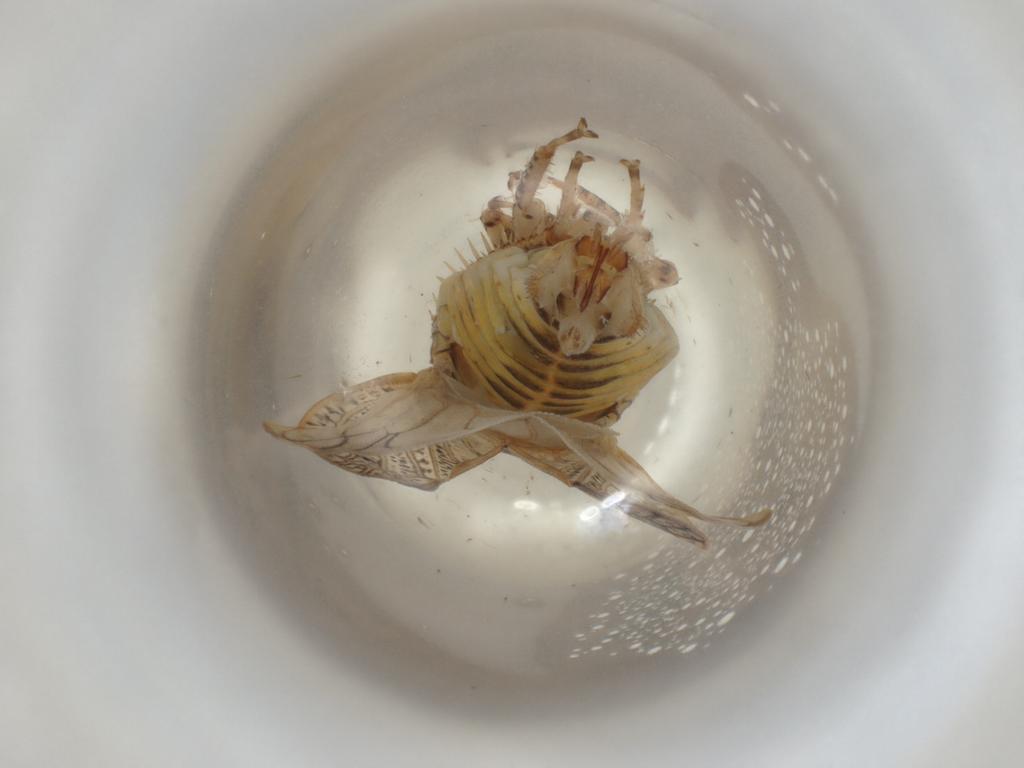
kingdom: Animalia
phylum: Arthropoda
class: Insecta
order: Hemiptera
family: Cicadellidae
